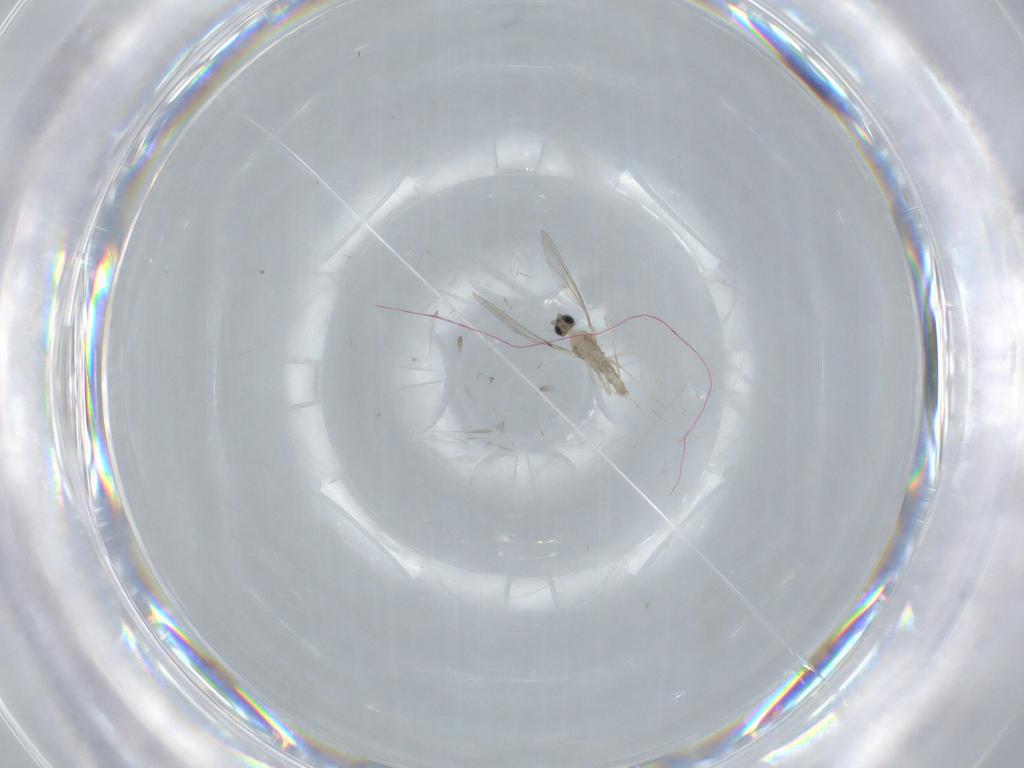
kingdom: Animalia
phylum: Arthropoda
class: Insecta
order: Diptera
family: Cecidomyiidae
